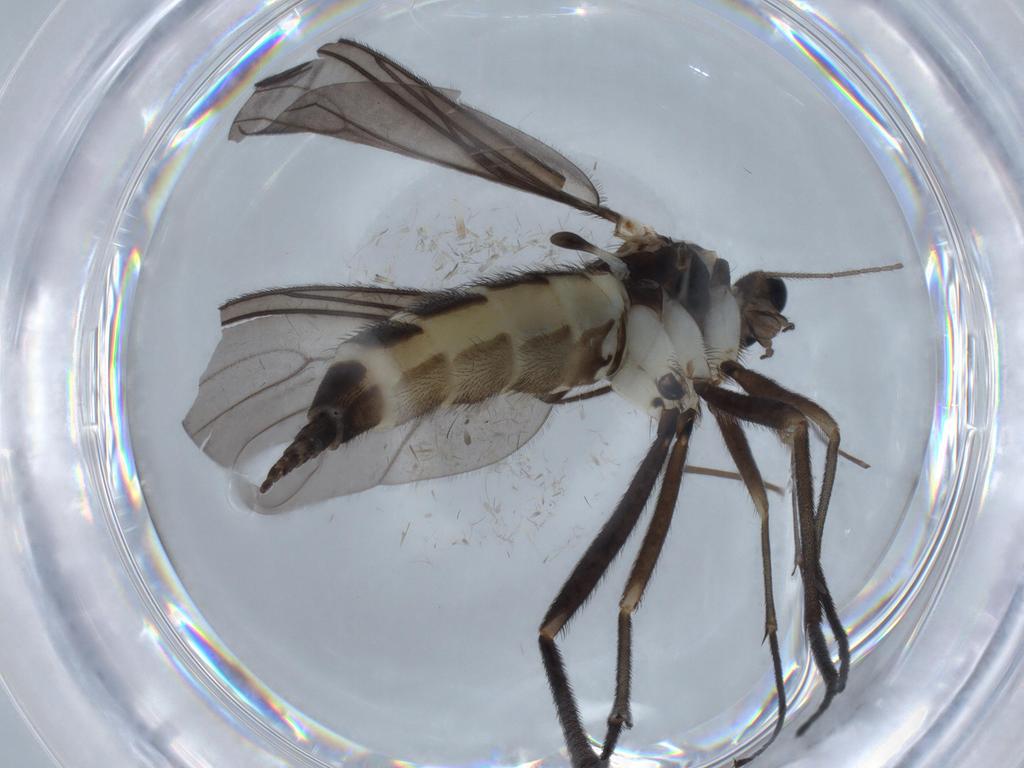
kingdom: Animalia
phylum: Arthropoda
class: Insecta
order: Diptera
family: Sciaridae
